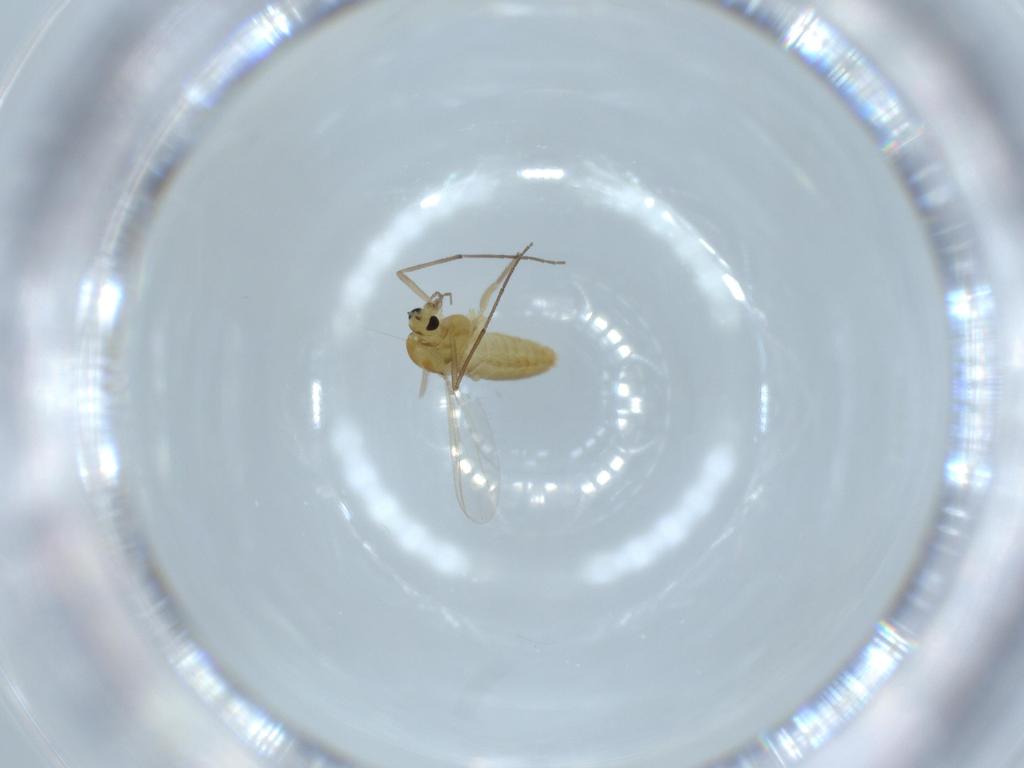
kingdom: Animalia
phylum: Arthropoda
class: Insecta
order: Diptera
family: Chironomidae
